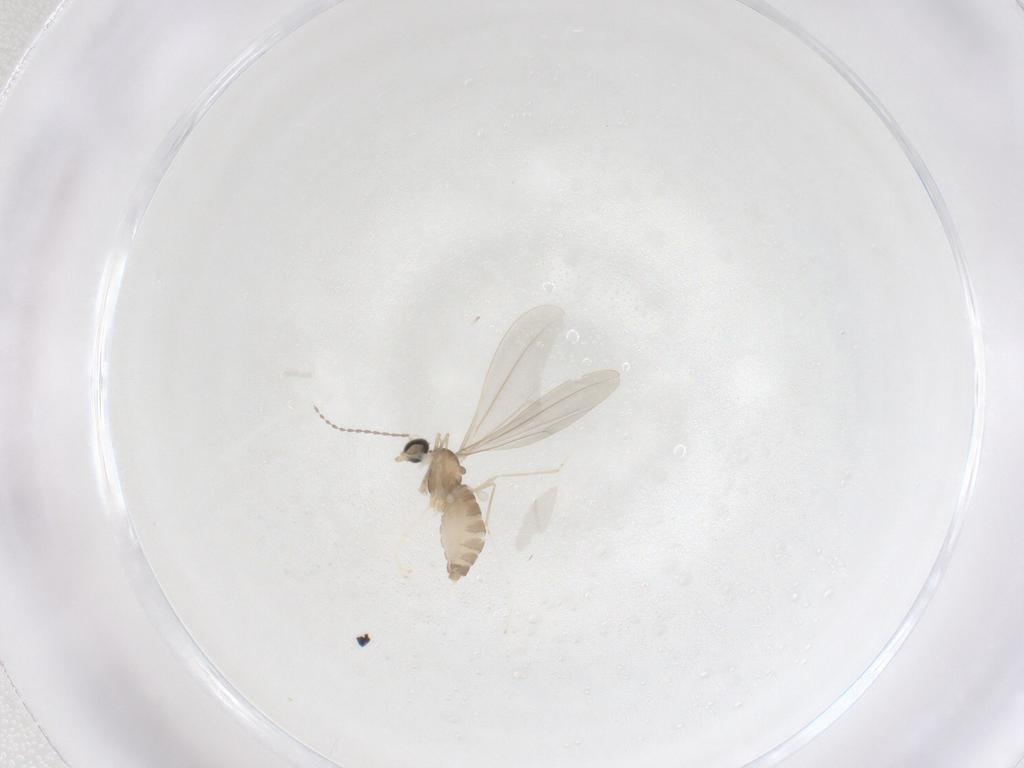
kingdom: Animalia
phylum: Arthropoda
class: Insecta
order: Diptera
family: Cecidomyiidae
